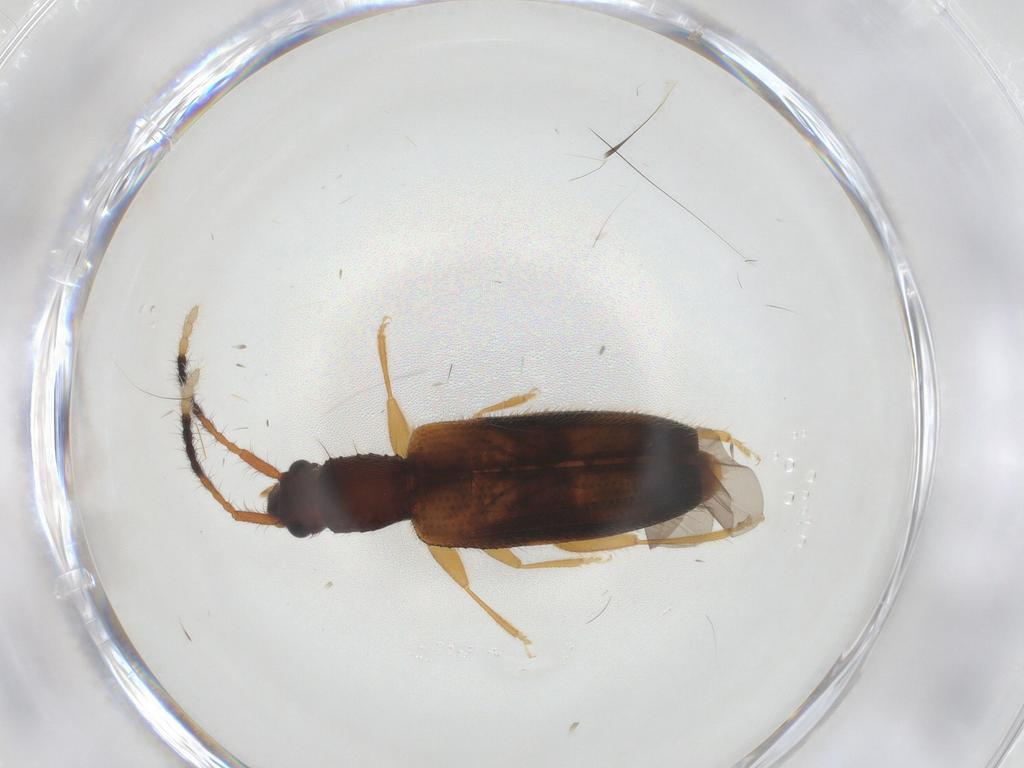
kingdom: Animalia
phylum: Arthropoda
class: Insecta
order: Coleoptera
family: Silvanidae
